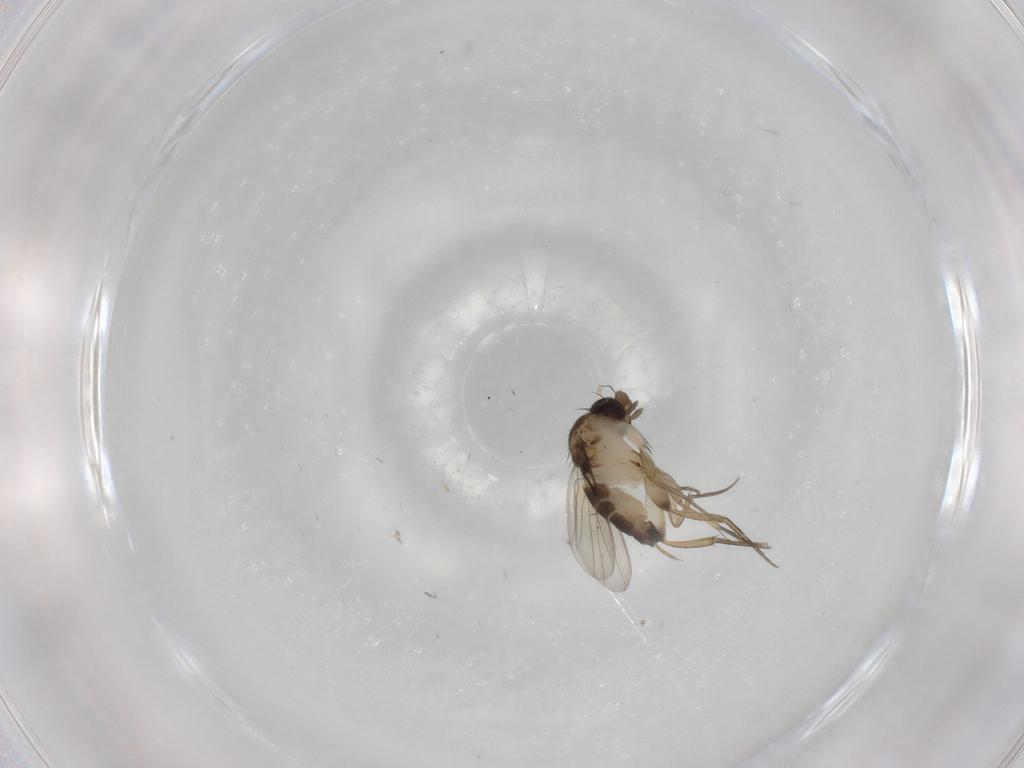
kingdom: Animalia
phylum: Arthropoda
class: Insecta
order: Diptera
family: Phoridae
